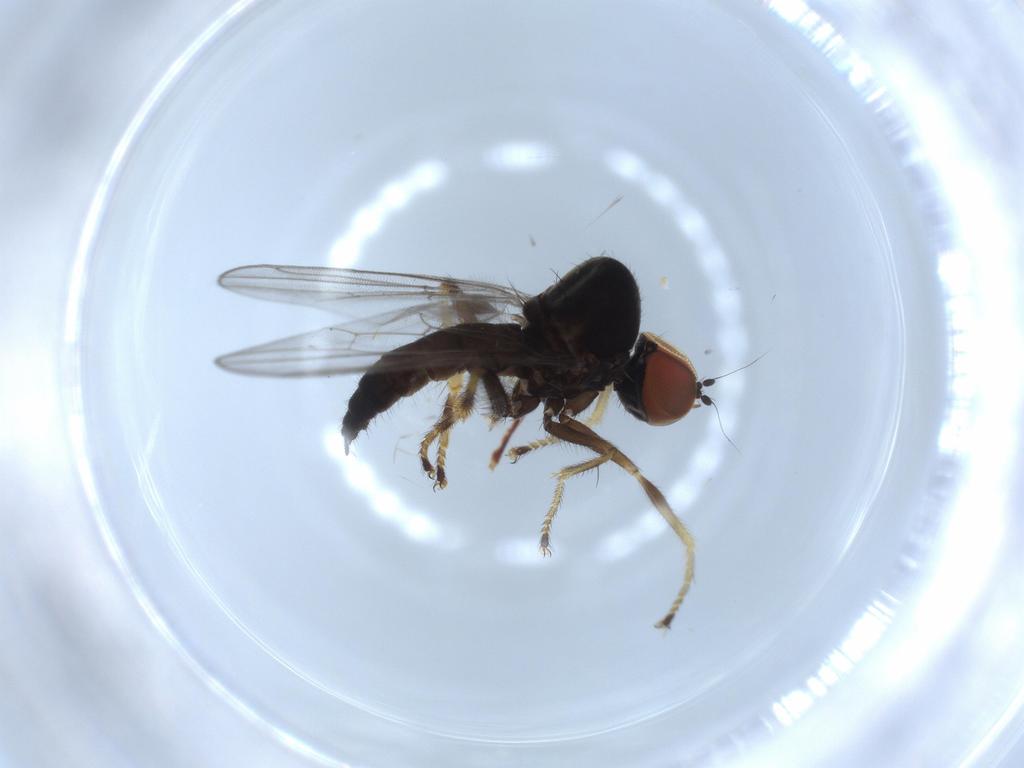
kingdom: Animalia
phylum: Arthropoda
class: Insecta
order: Diptera
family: Hybotidae
